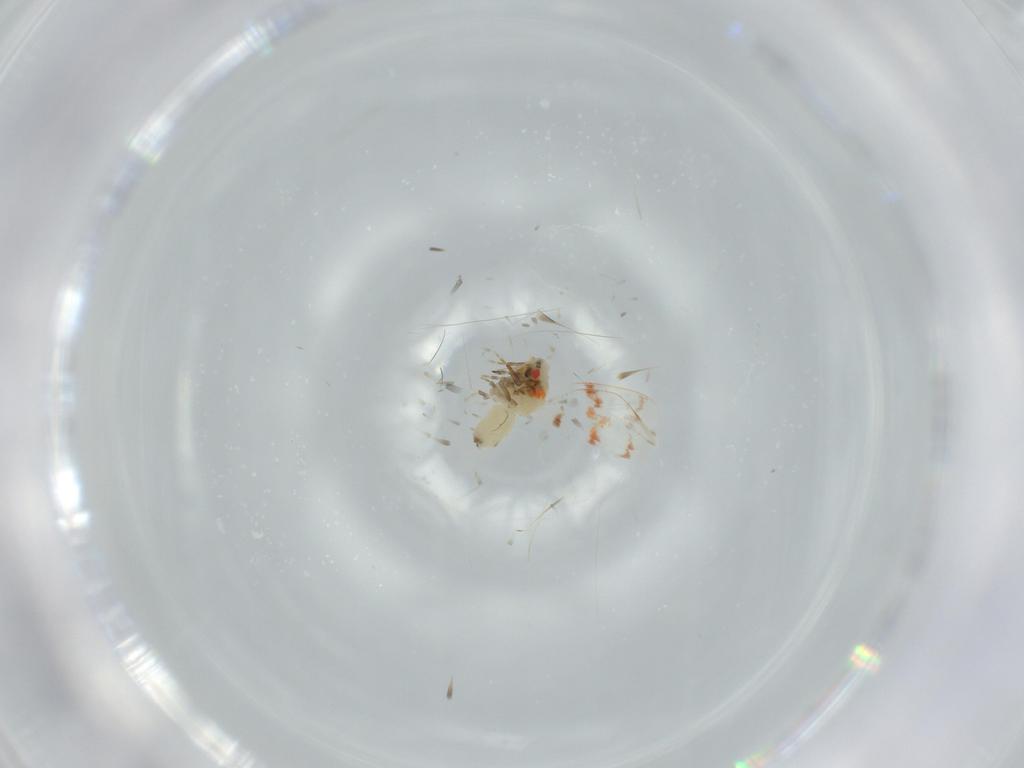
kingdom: Animalia
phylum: Arthropoda
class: Insecta
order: Hemiptera
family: Aleyrodidae
